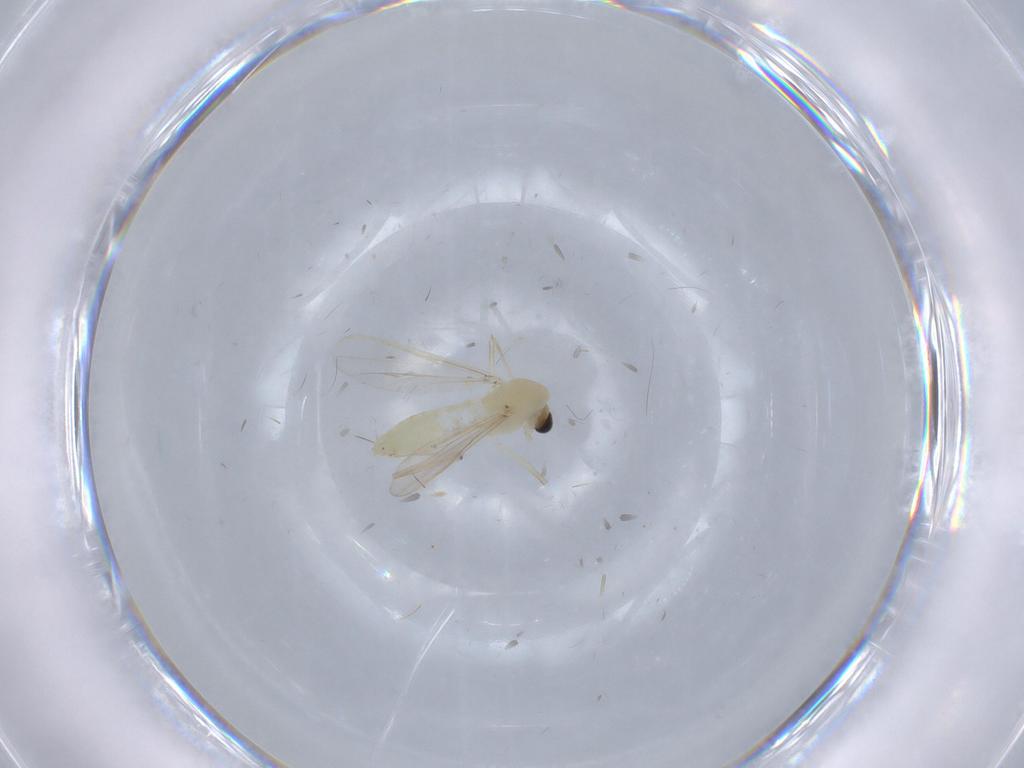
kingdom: Animalia
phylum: Arthropoda
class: Insecta
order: Diptera
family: Chironomidae
